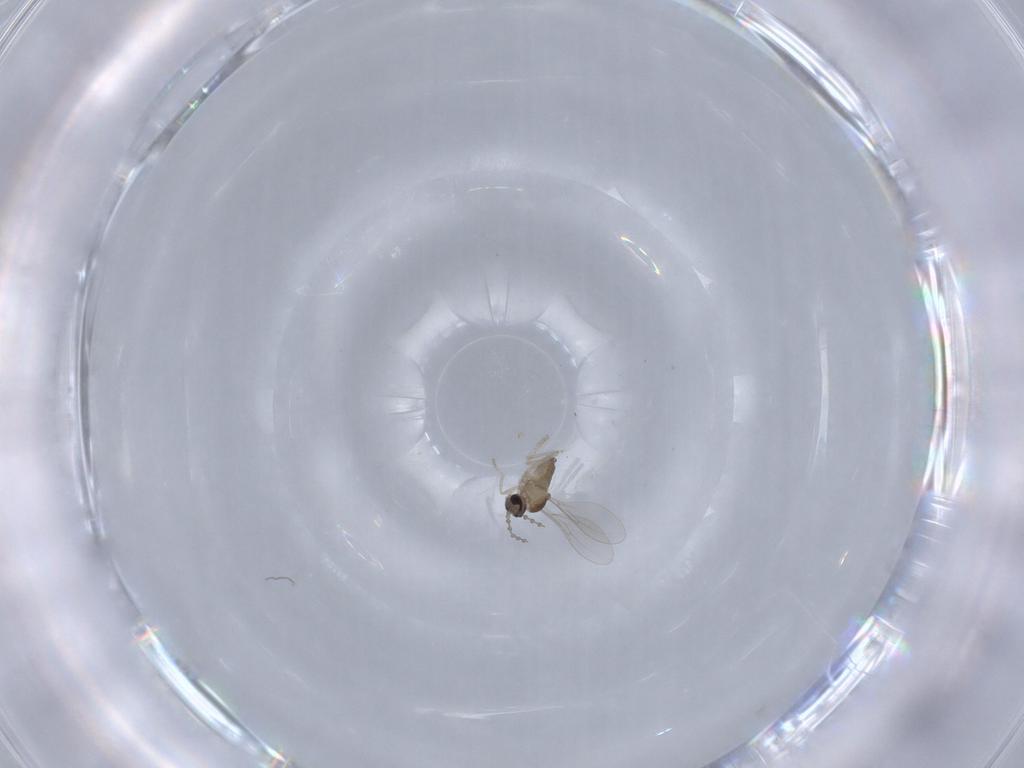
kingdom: Animalia
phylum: Arthropoda
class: Insecta
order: Diptera
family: Cecidomyiidae
